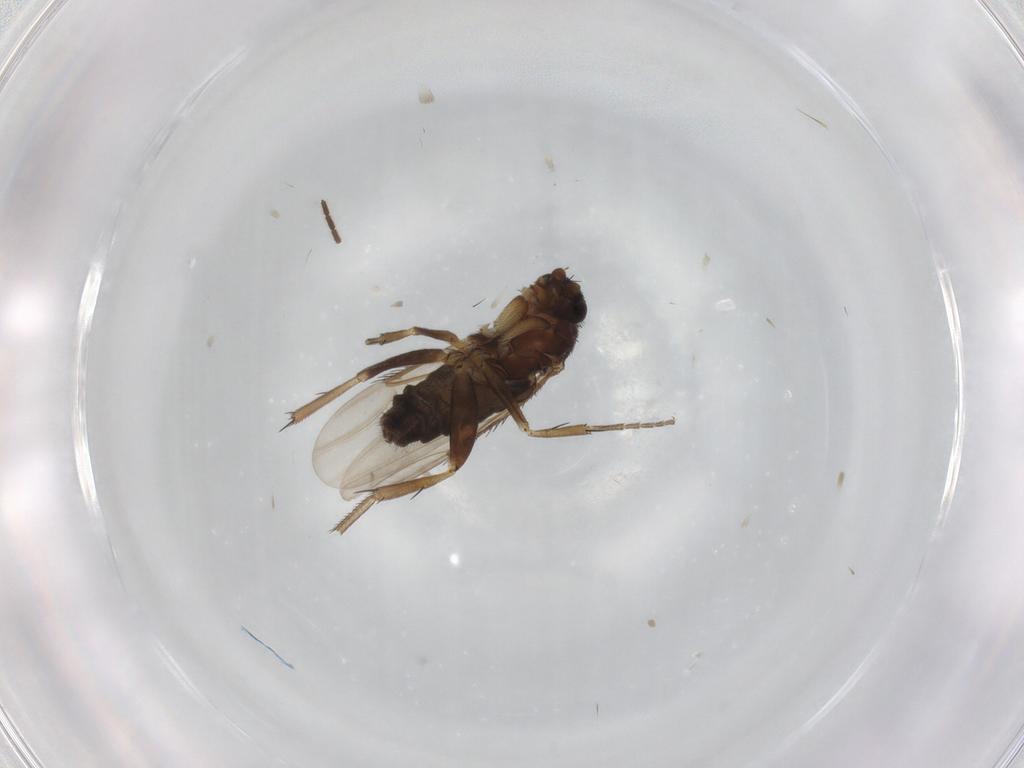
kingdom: Animalia
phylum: Arthropoda
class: Insecta
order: Diptera
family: Phoridae
